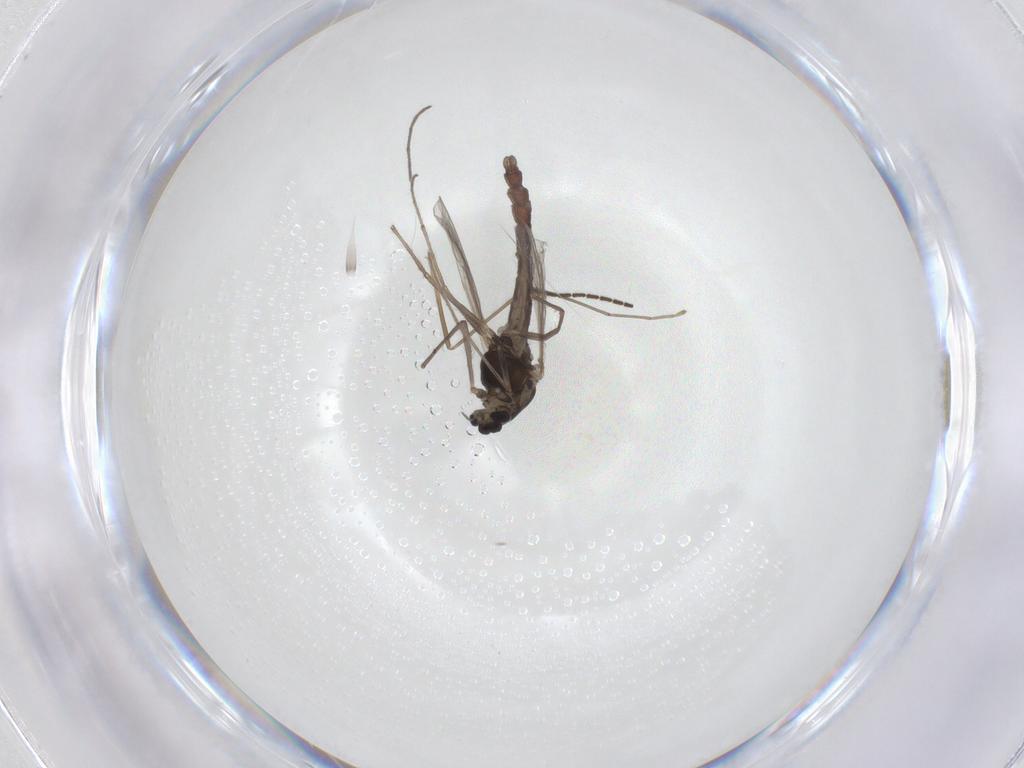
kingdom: Animalia
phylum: Arthropoda
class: Insecta
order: Diptera
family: Chironomidae
